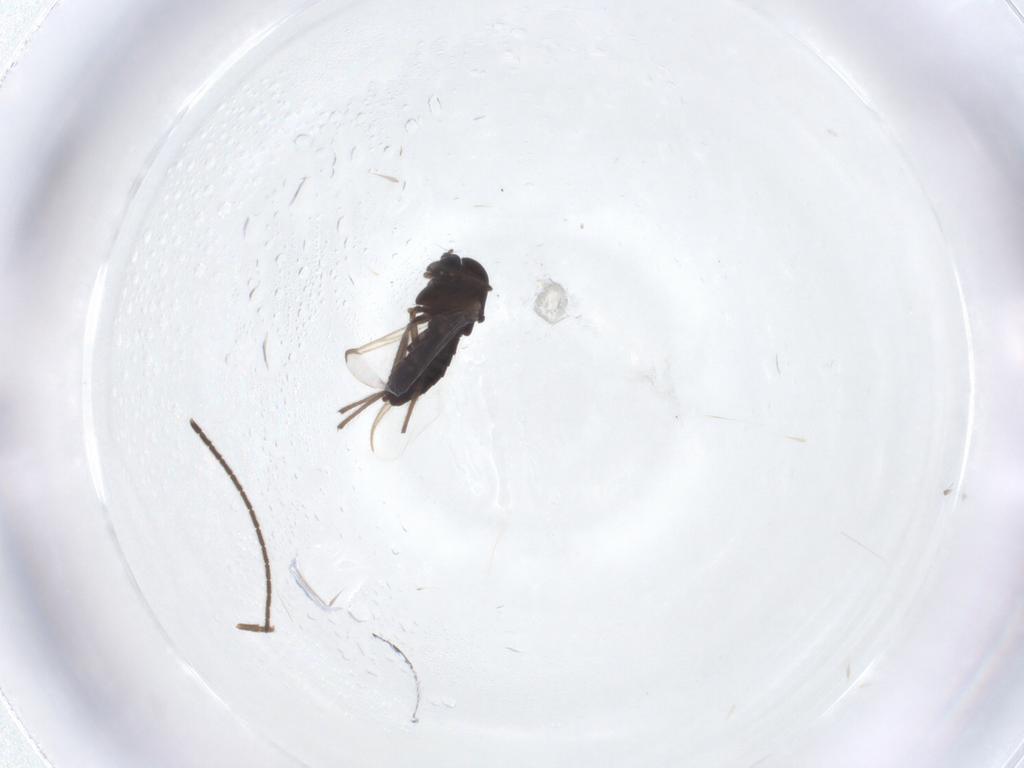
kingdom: Animalia
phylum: Arthropoda
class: Insecta
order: Diptera
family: Chironomidae
